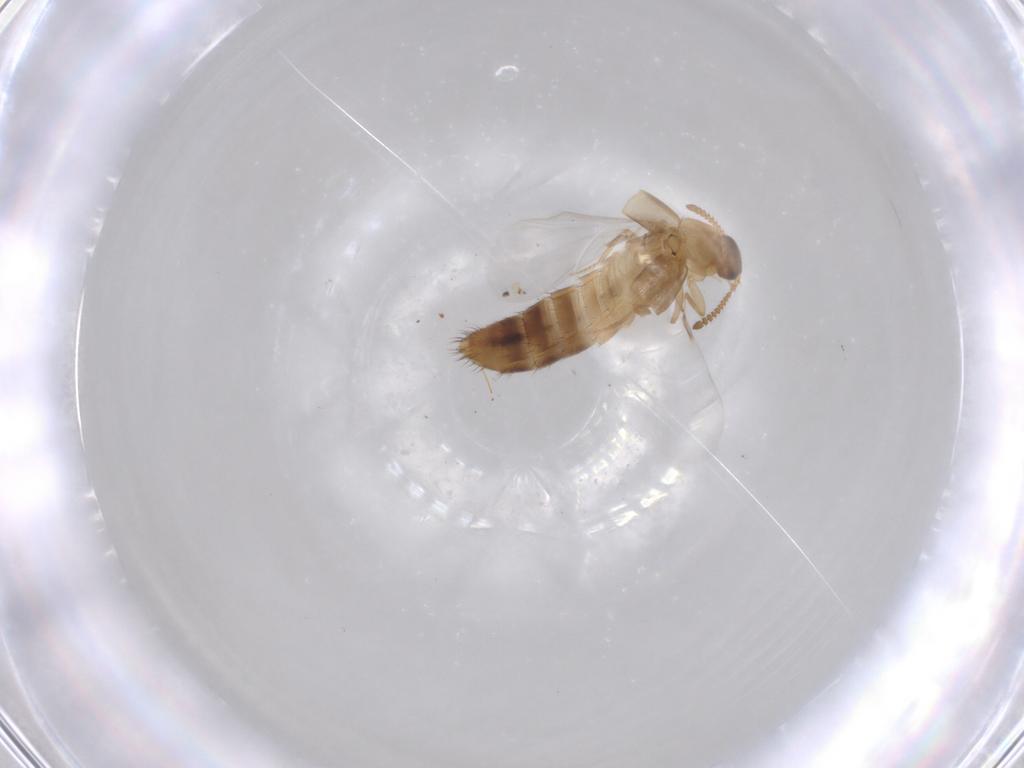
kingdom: Animalia
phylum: Arthropoda
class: Insecta
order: Coleoptera
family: Staphylinidae
